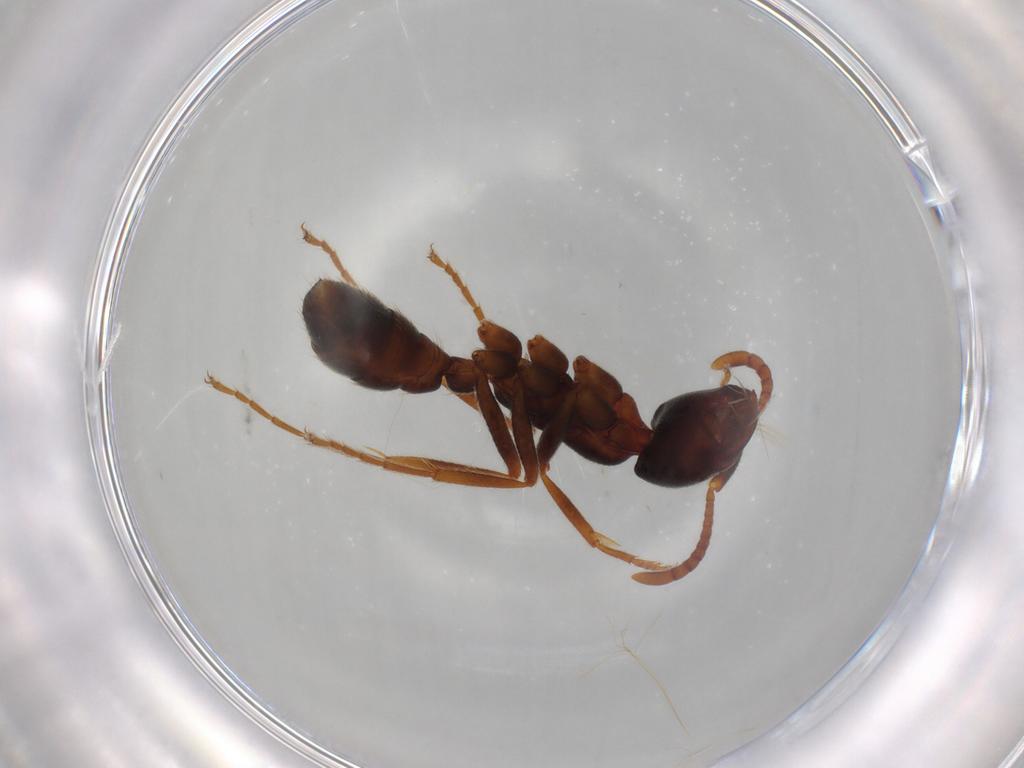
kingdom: Animalia
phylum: Arthropoda
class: Insecta
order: Hymenoptera
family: Formicidae
